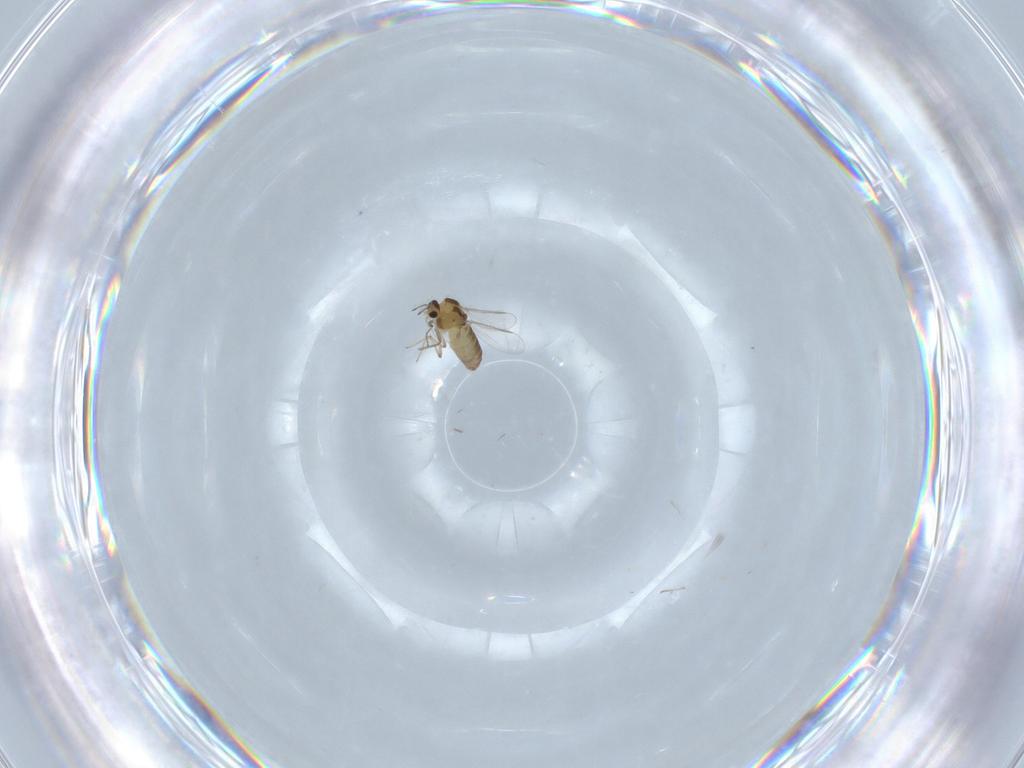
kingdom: Animalia
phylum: Arthropoda
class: Insecta
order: Diptera
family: Chironomidae
